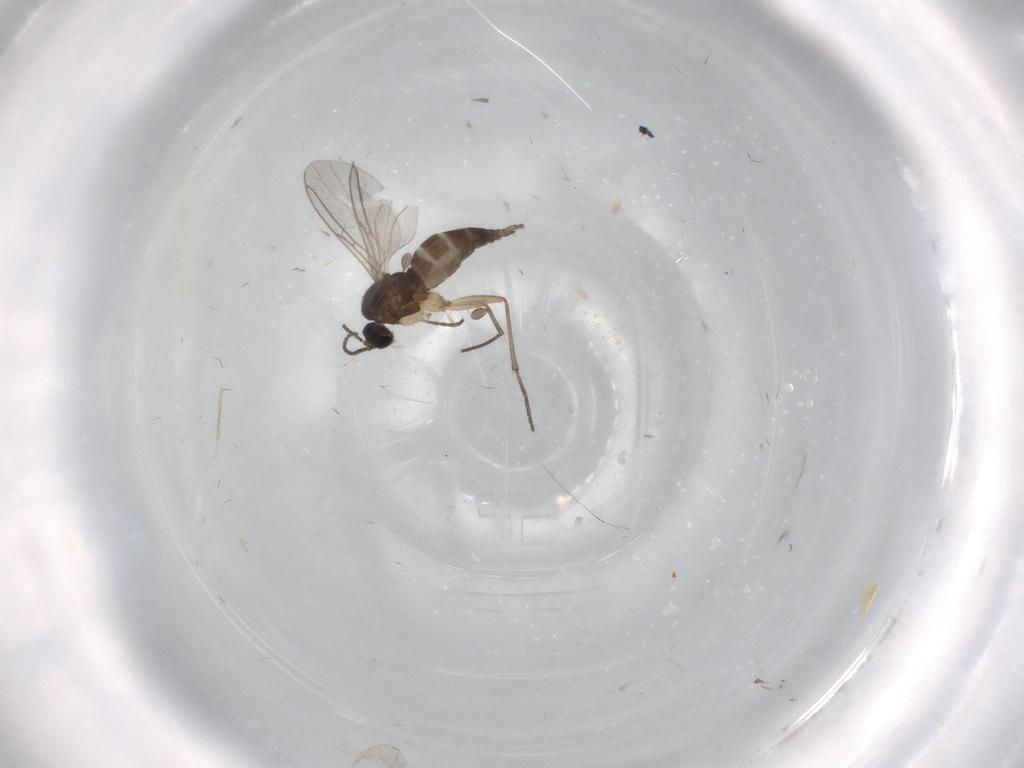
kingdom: Animalia
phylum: Arthropoda
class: Insecta
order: Diptera
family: Sciaridae
